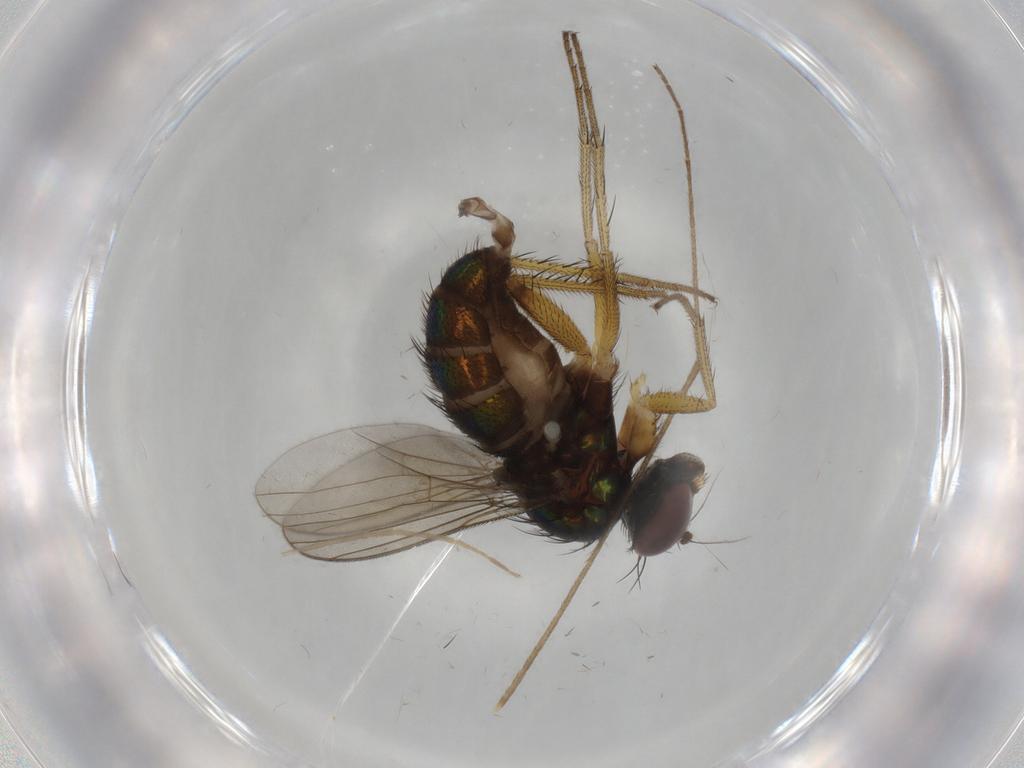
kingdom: Animalia
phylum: Arthropoda
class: Insecta
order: Diptera
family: Dolichopodidae
